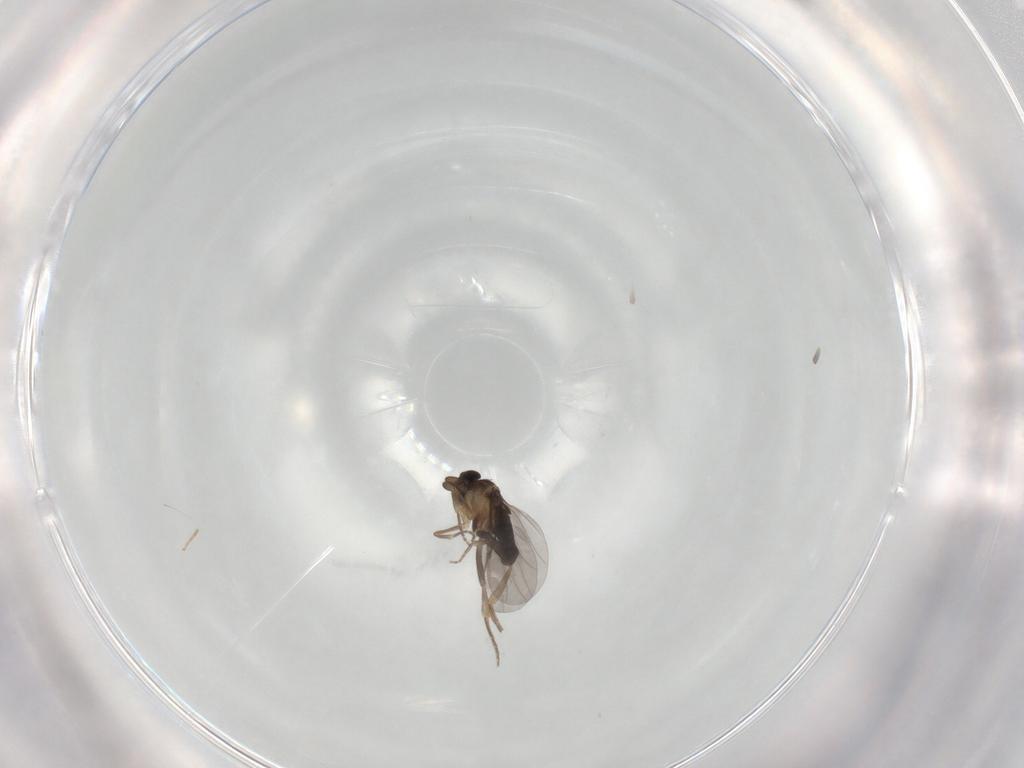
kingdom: Animalia
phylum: Arthropoda
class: Insecta
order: Diptera
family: Chironomidae
